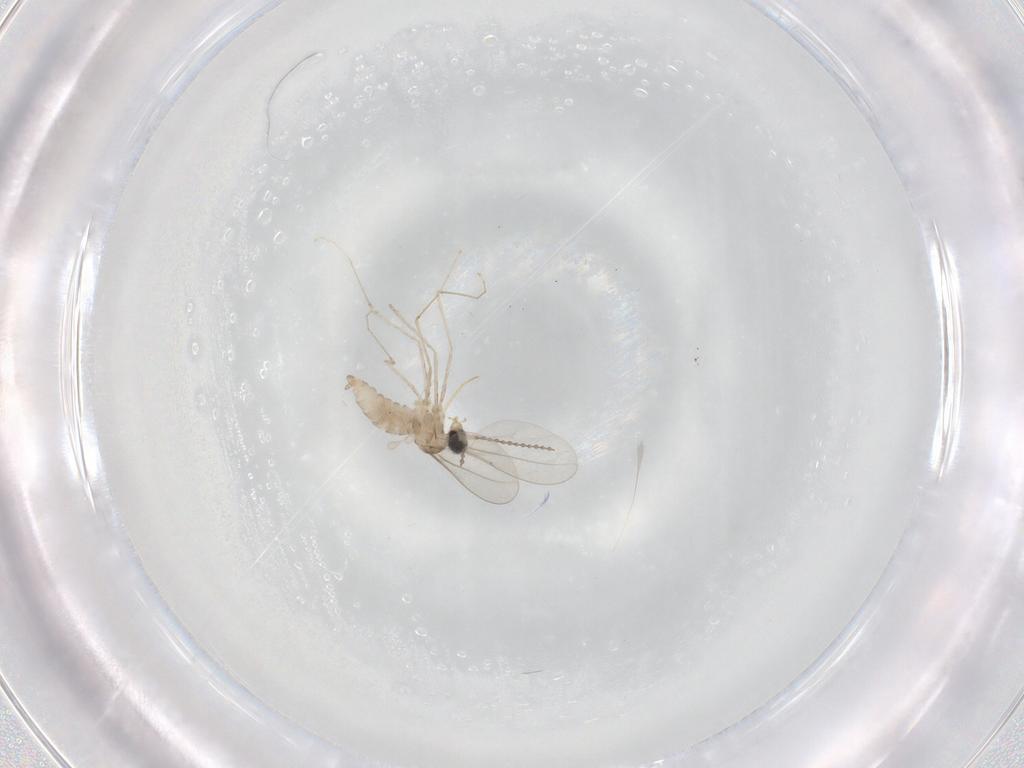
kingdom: Animalia
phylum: Arthropoda
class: Insecta
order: Diptera
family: Cecidomyiidae
